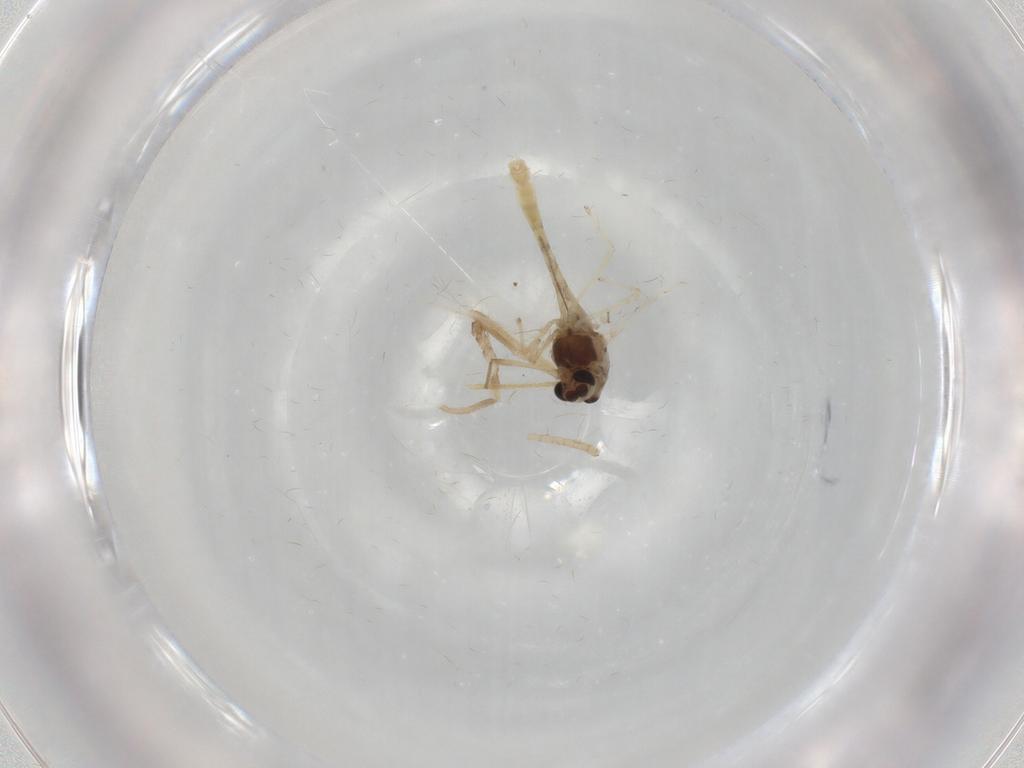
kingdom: Animalia
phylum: Arthropoda
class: Insecta
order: Diptera
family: Chironomidae
